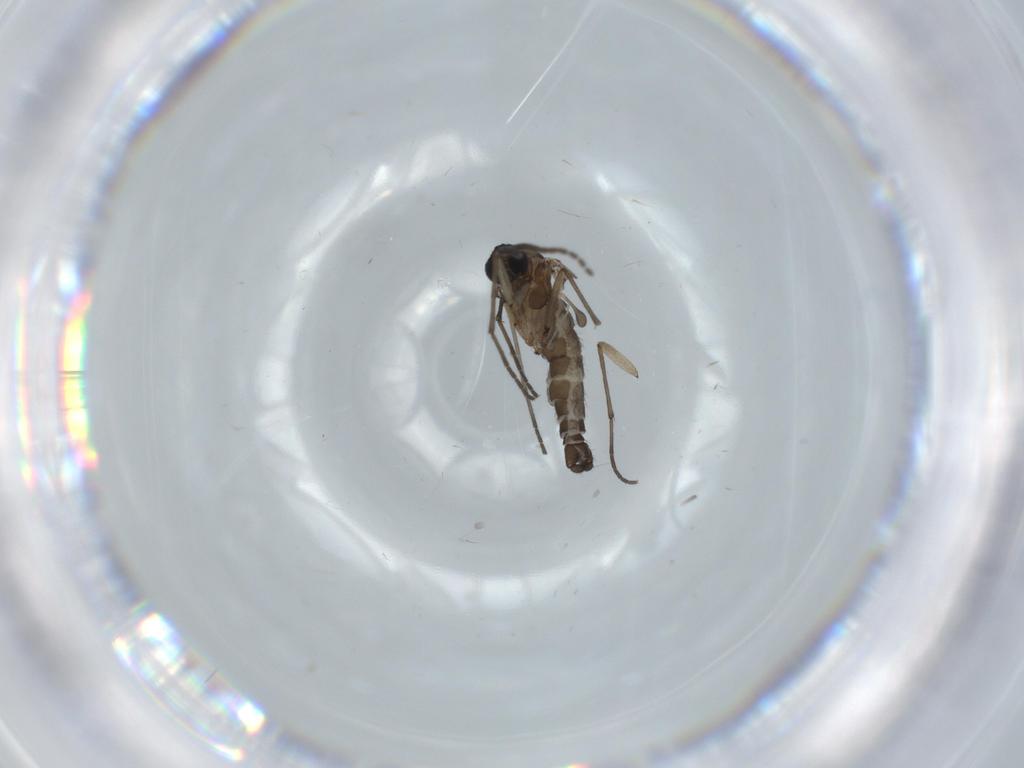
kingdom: Animalia
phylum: Arthropoda
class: Insecta
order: Diptera
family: Sciaridae
